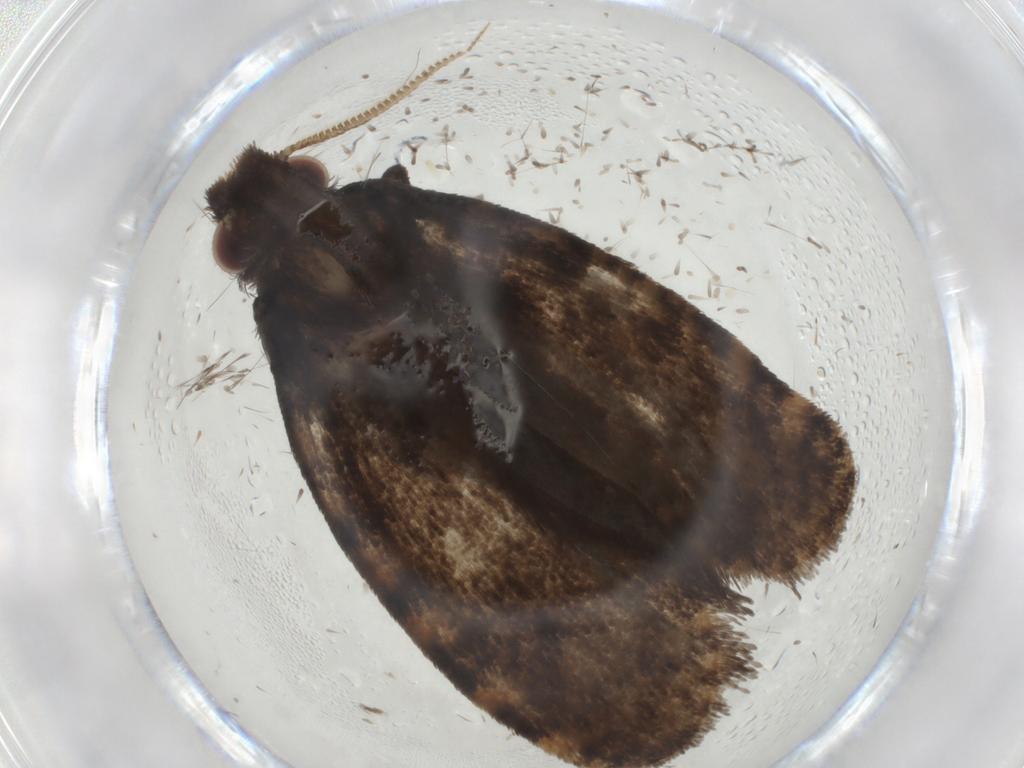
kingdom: Animalia
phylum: Arthropoda
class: Insecta
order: Lepidoptera
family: Tineidae
